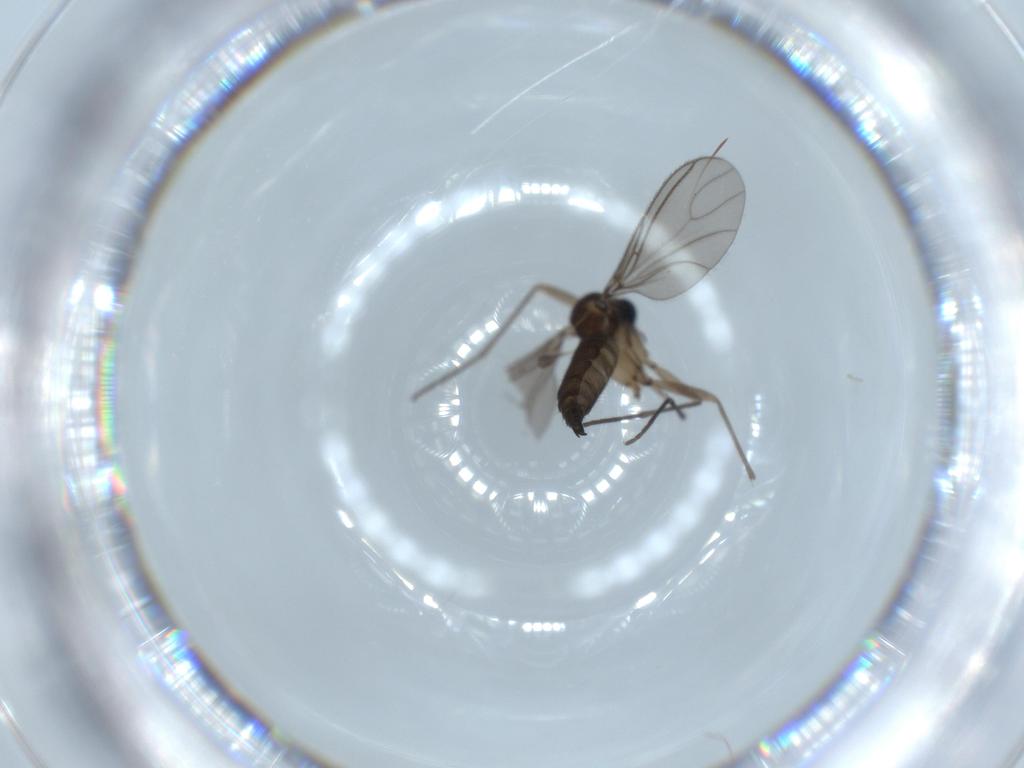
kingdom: Animalia
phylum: Arthropoda
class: Insecta
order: Diptera
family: Sciaridae
